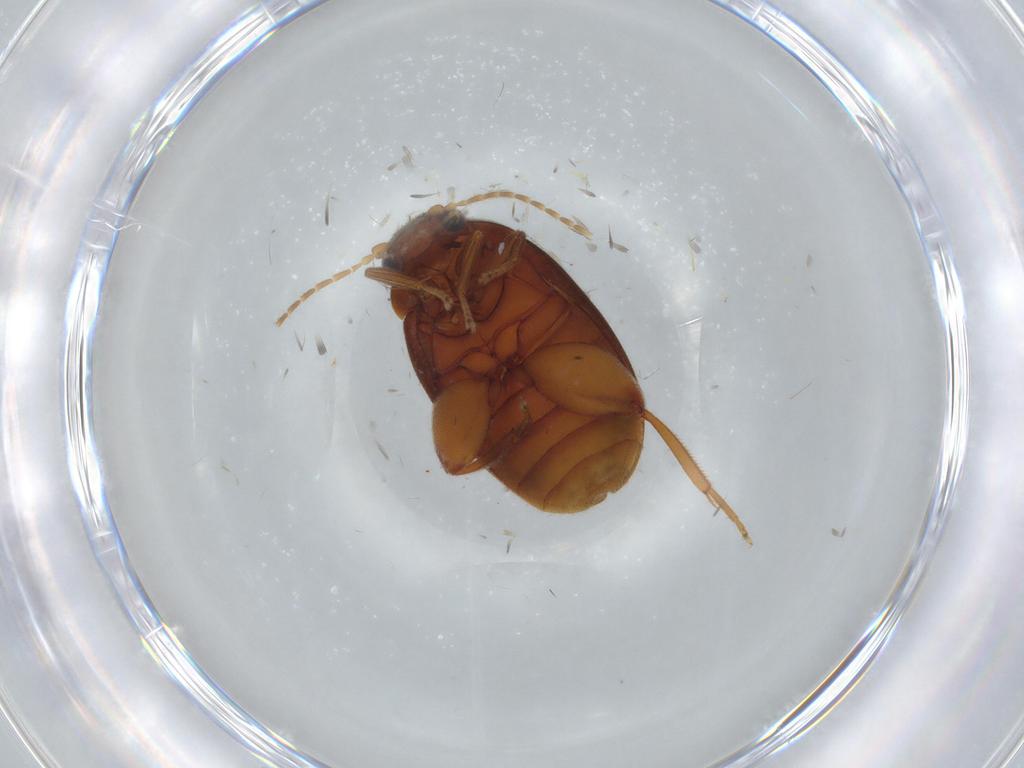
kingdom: Animalia
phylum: Arthropoda
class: Insecta
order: Coleoptera
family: Scirtidae
